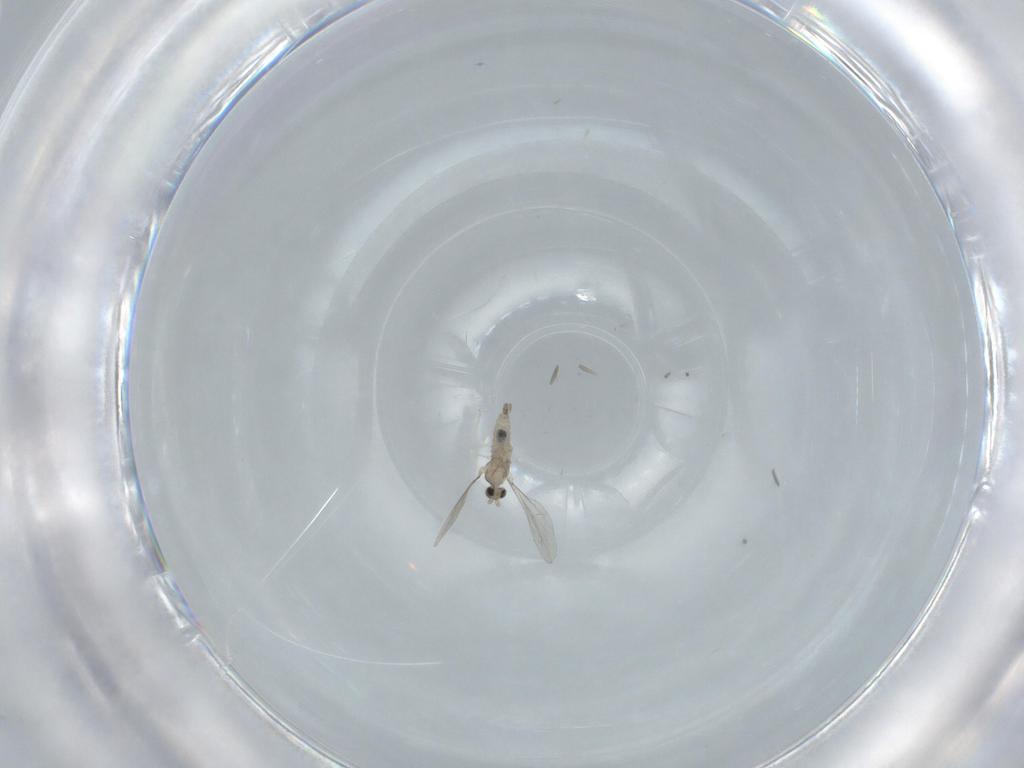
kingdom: Animalia
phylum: Arthropoda
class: Insecta
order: Diptera
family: Cecidomyiidae
